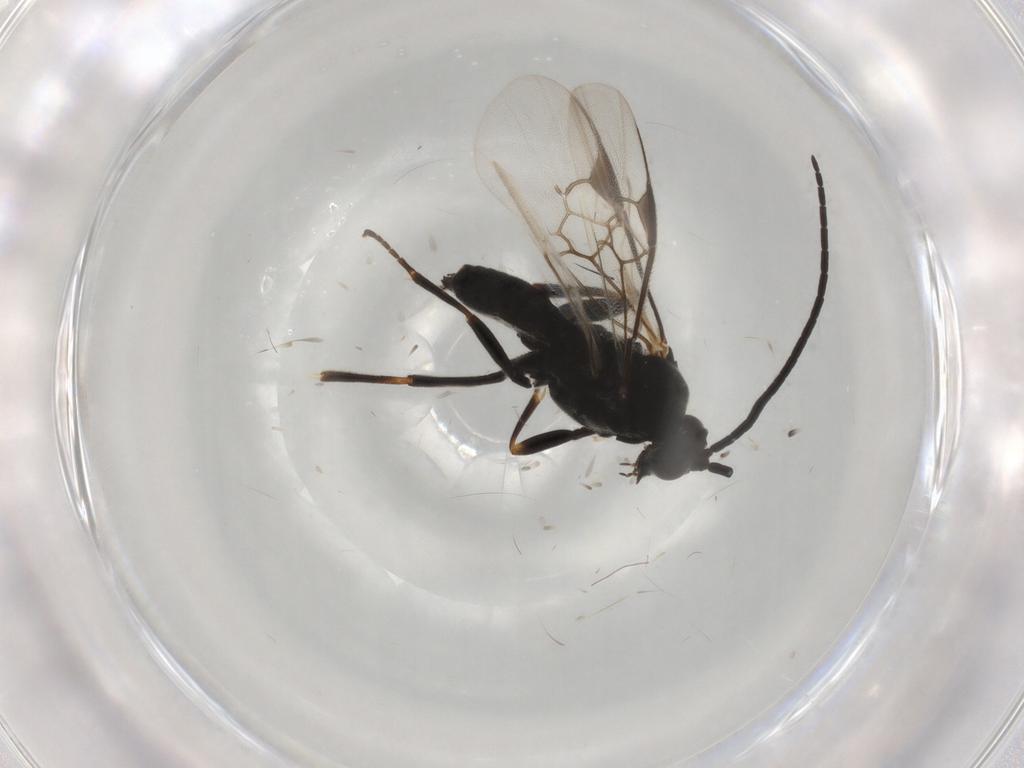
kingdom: Animalia
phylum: Arthropoda
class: Insecta
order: Hymenoptera
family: Braconidae
